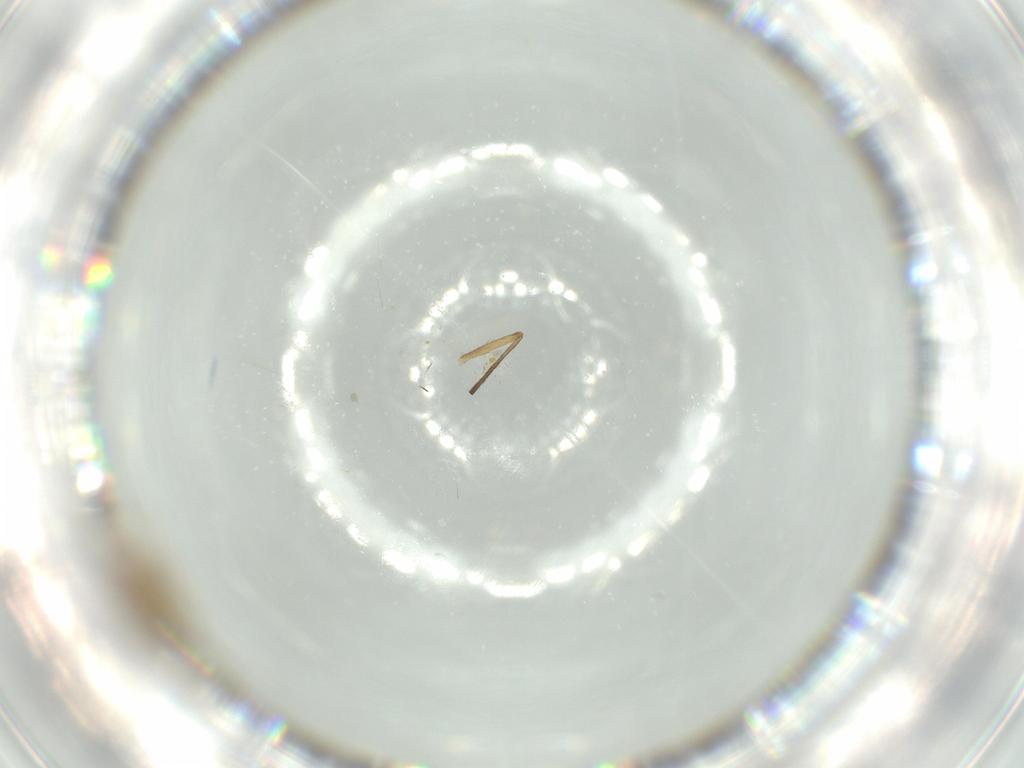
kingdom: Animalia
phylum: Arthropoda
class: Insecta
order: Diptera
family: Chironomidae
